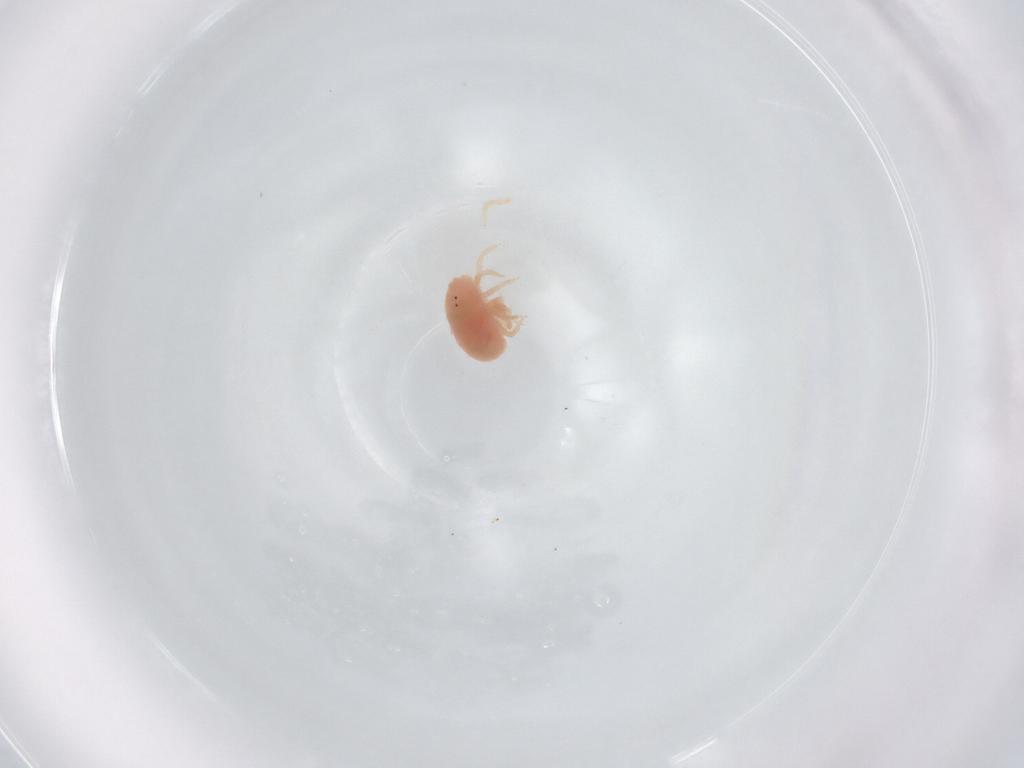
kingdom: Animalia
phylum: Arthropoda
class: Arachnida
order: Trombidiformes
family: Bdellidae
